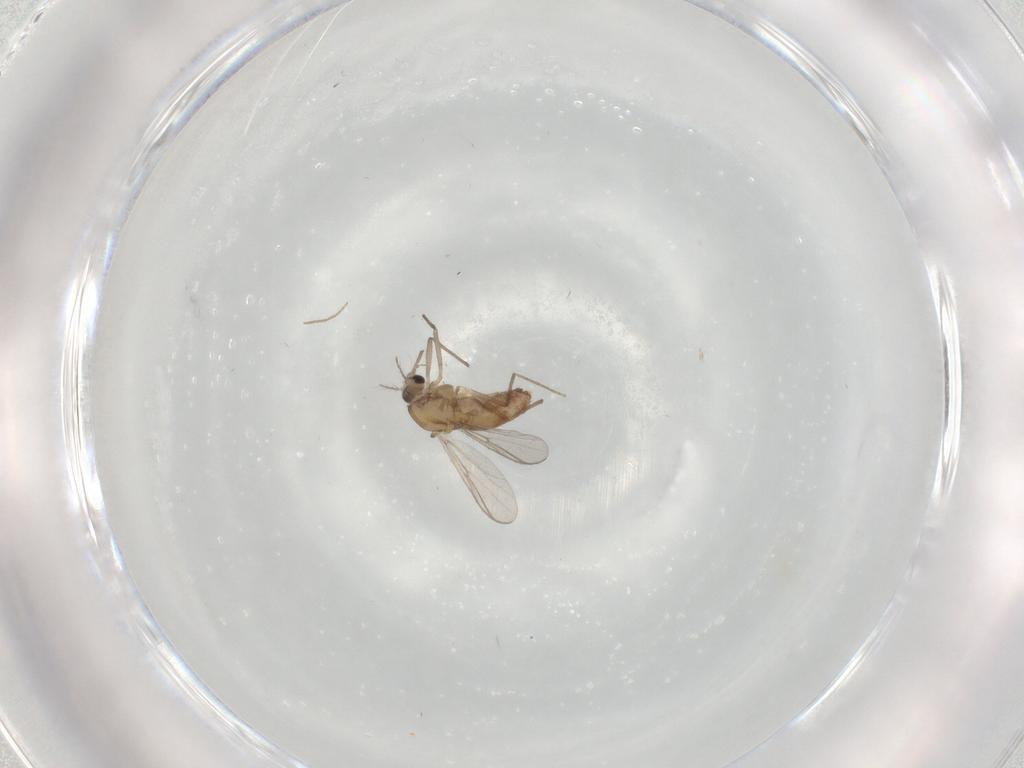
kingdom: Animalia
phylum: Arthropoda
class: Insecta
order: Diptera
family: Chironomidae
